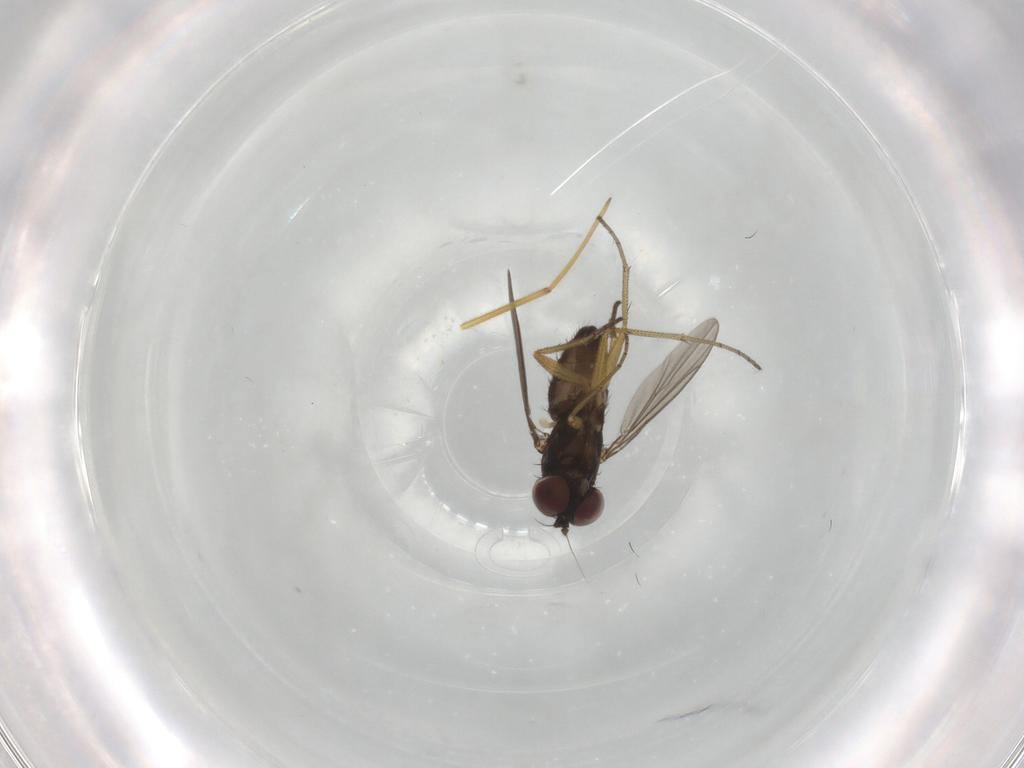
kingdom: Animalia
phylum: Arthropoda
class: Insecta
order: Diptera
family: Dolichopodidae
